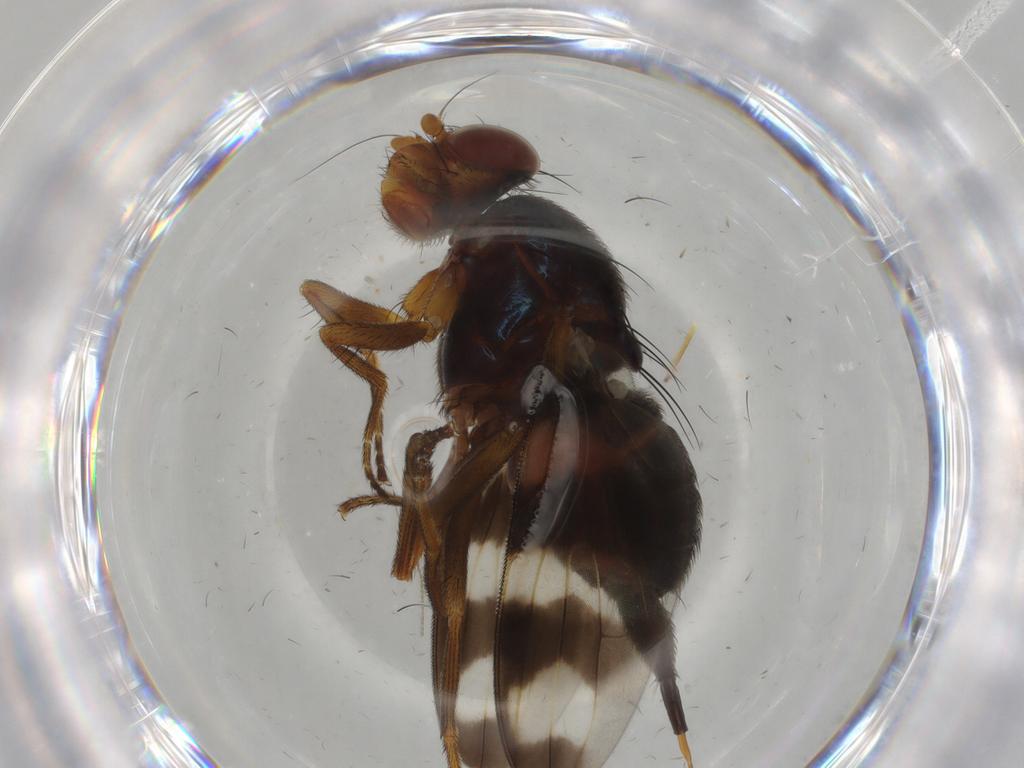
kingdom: Animalia
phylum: Arthropoda
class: Insecta
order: Diptera
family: Ulidiidae
